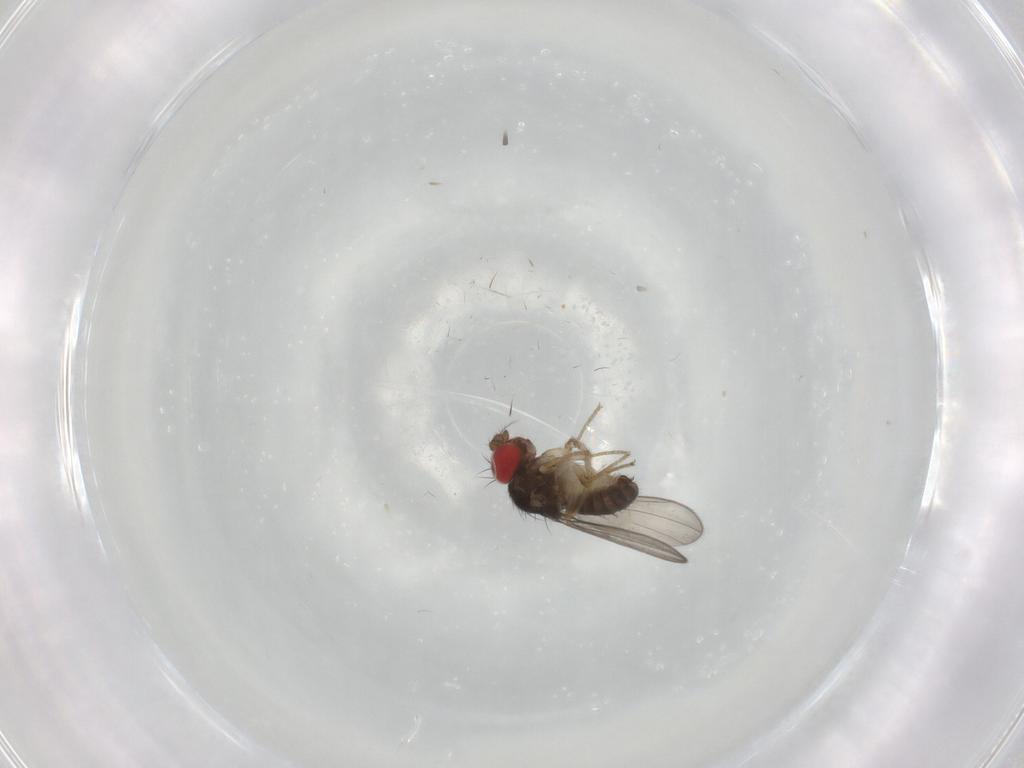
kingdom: Animalia
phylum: Arthropoda
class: Insecta
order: Diptera
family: Drosophilidae
